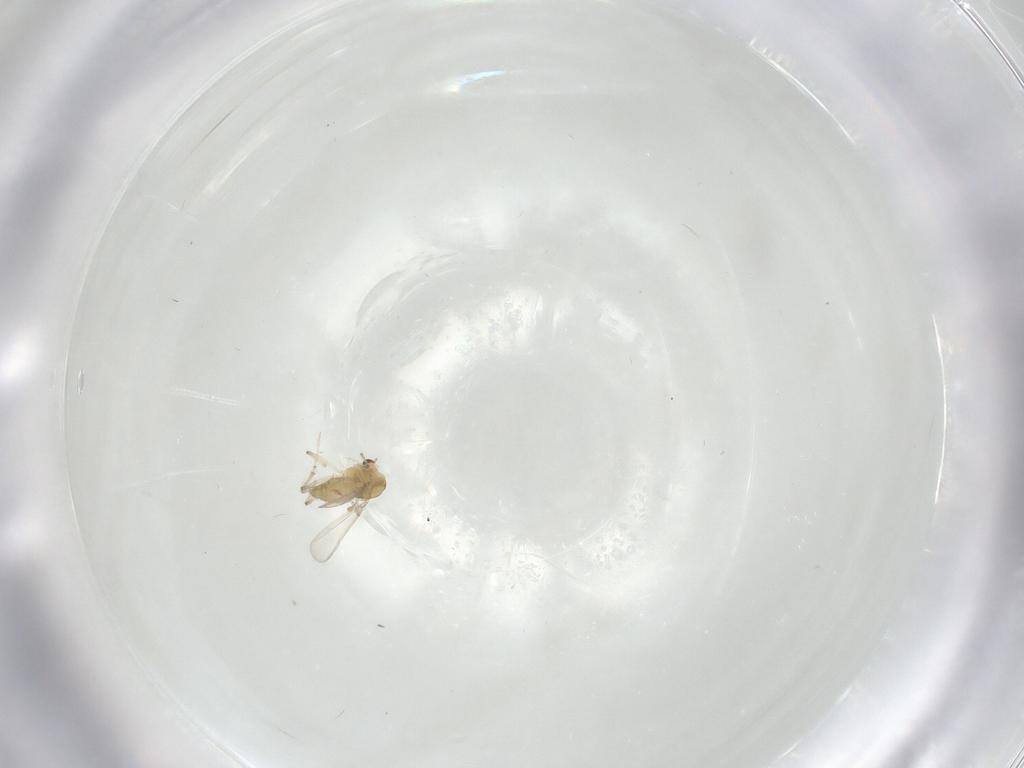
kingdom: Animalia
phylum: Arthropoda
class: Insecta
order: Diptera
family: Chironomidae
